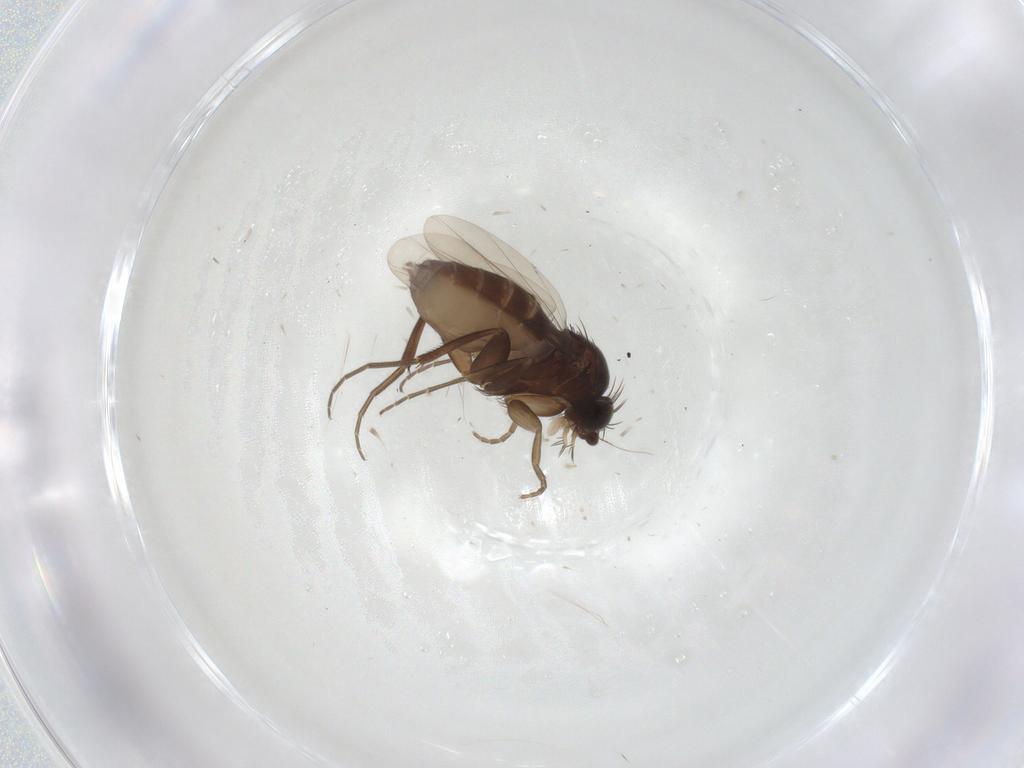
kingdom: Animalia
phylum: Arthropoda
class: Insecta
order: Diptera
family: Phoridae
